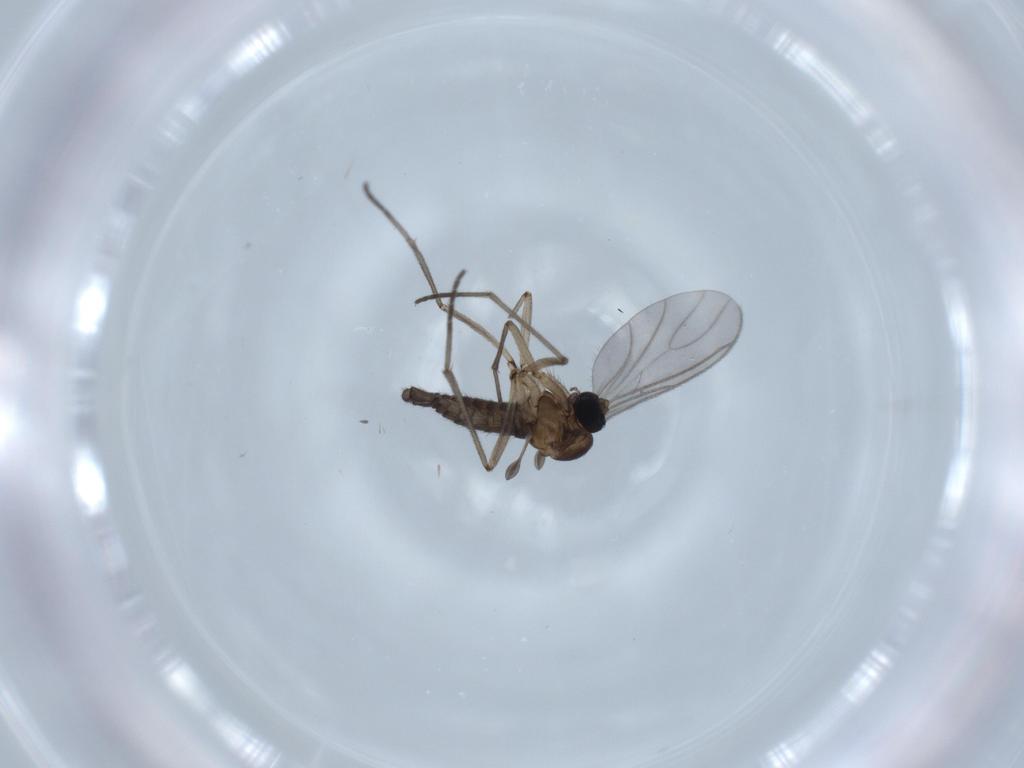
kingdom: Animalia
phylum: Arthropoda
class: Insecta
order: Diptera
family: Sciaridae
